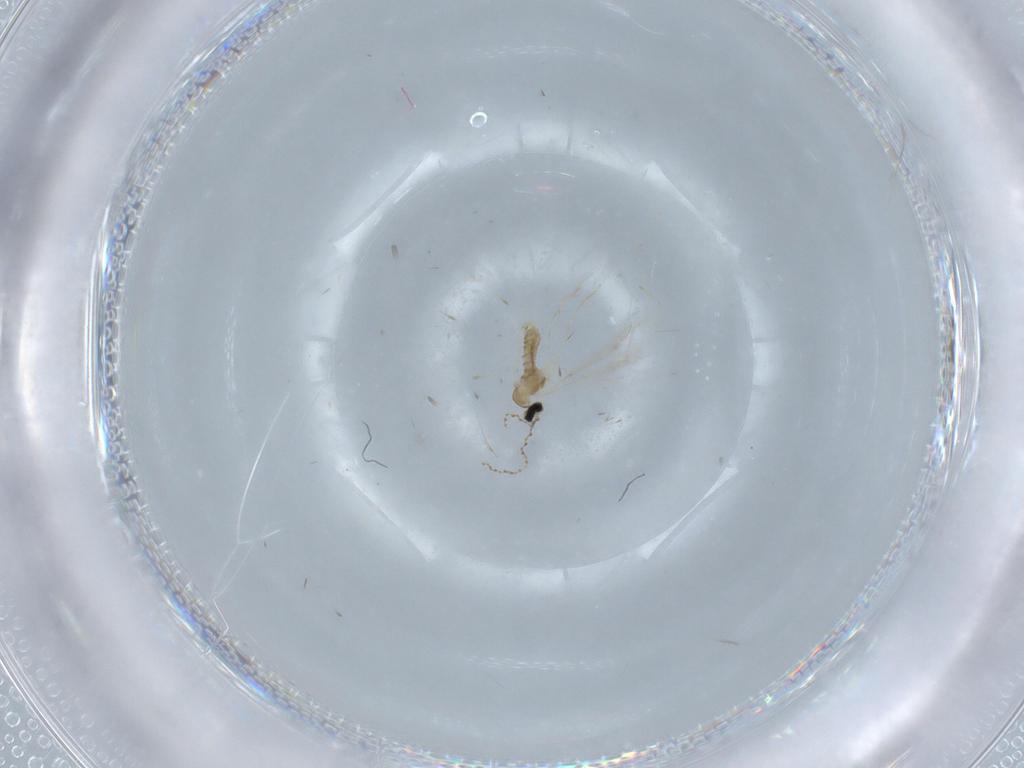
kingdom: Animalia
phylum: Arthropoda
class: Insecta
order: Diptera
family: Cecidomyiidae
